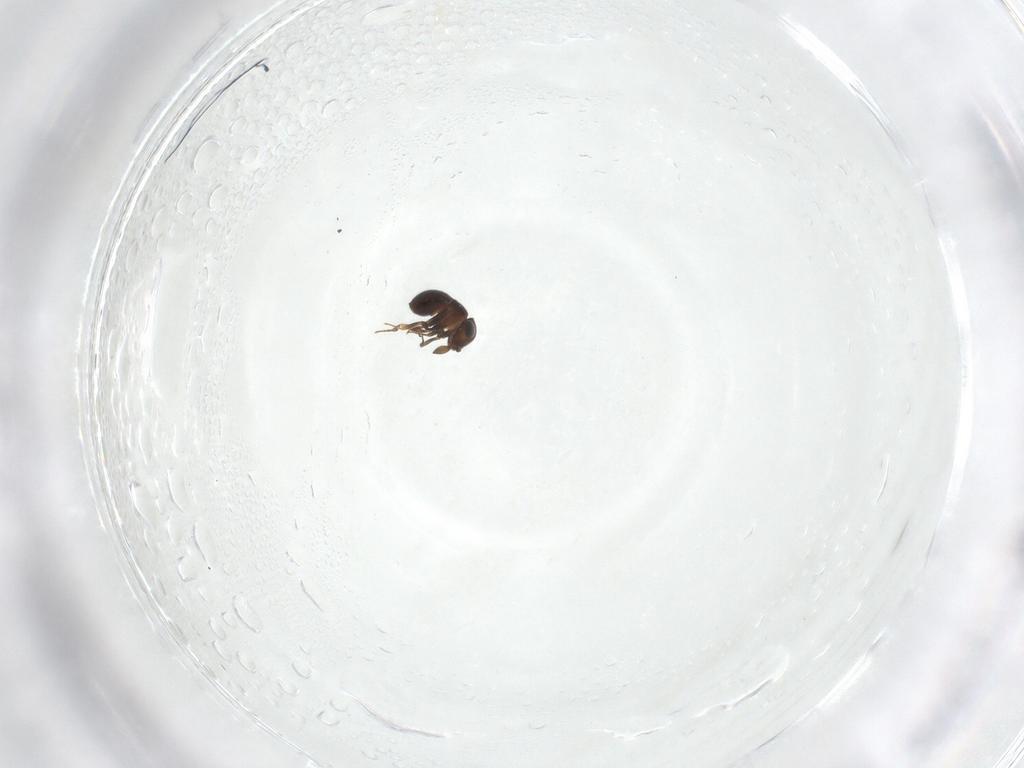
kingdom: Animalia
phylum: Arthropoda
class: Insecta
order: Hymenoptera
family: Scelionidae
